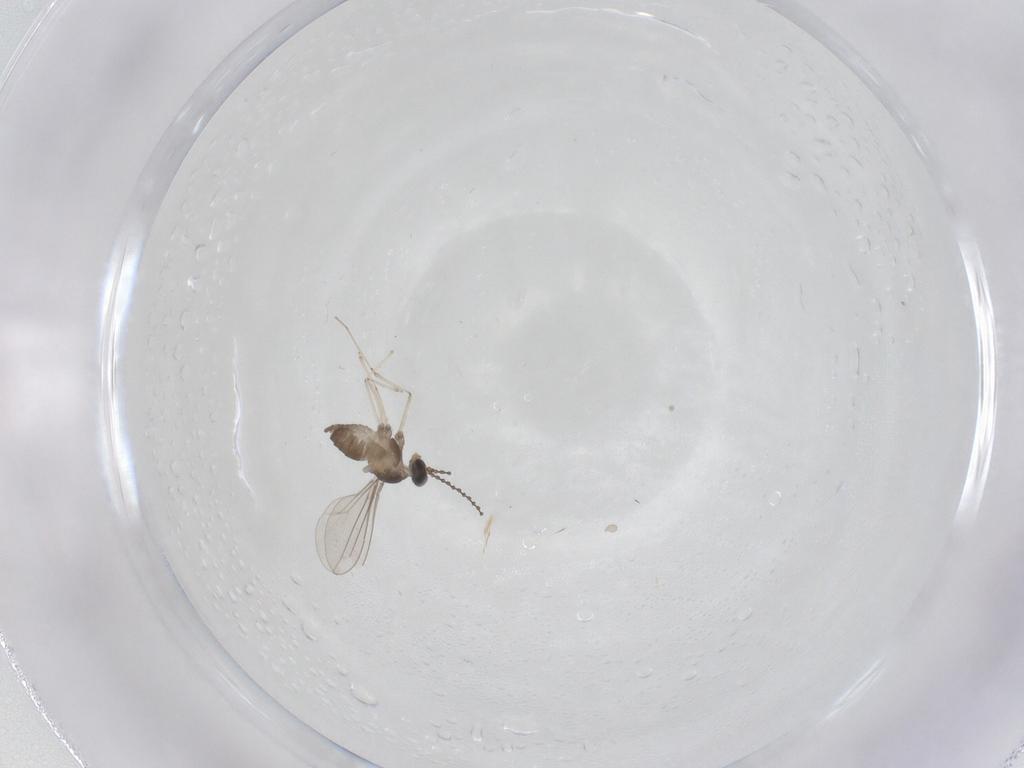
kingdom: Animalia
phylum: Arthropoda
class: Insecta
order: Diptera
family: Cecidomyiidae
